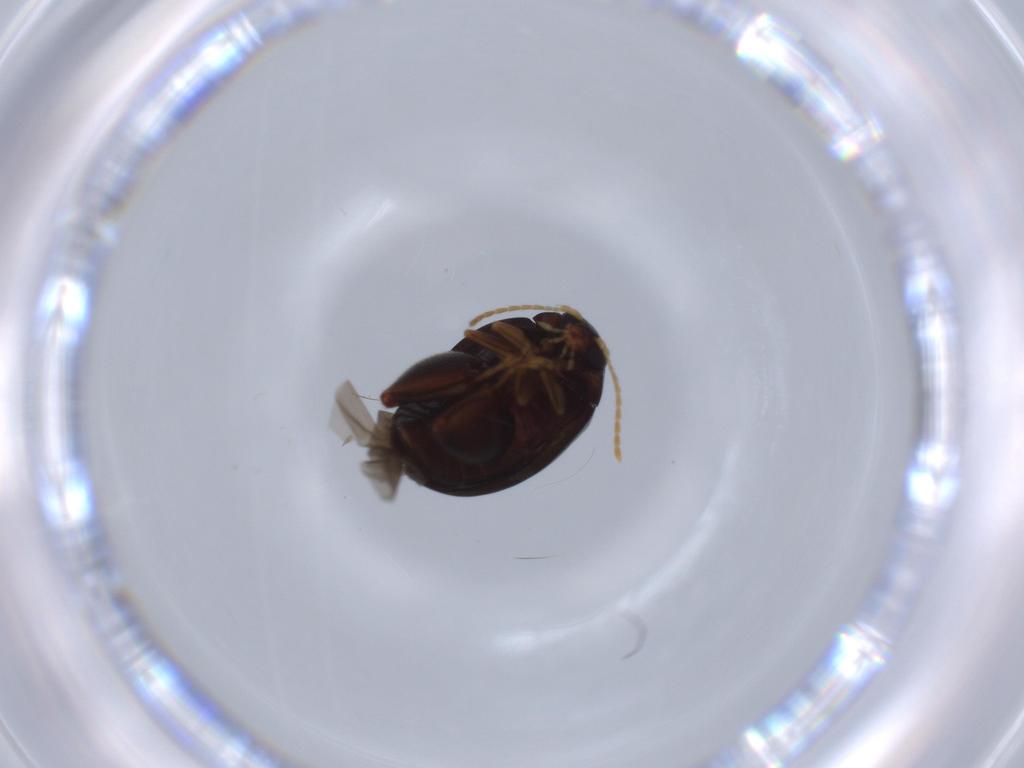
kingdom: Animalia
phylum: Arthropoda
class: Insecta
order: Coleoptera
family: Chrysomelidae
